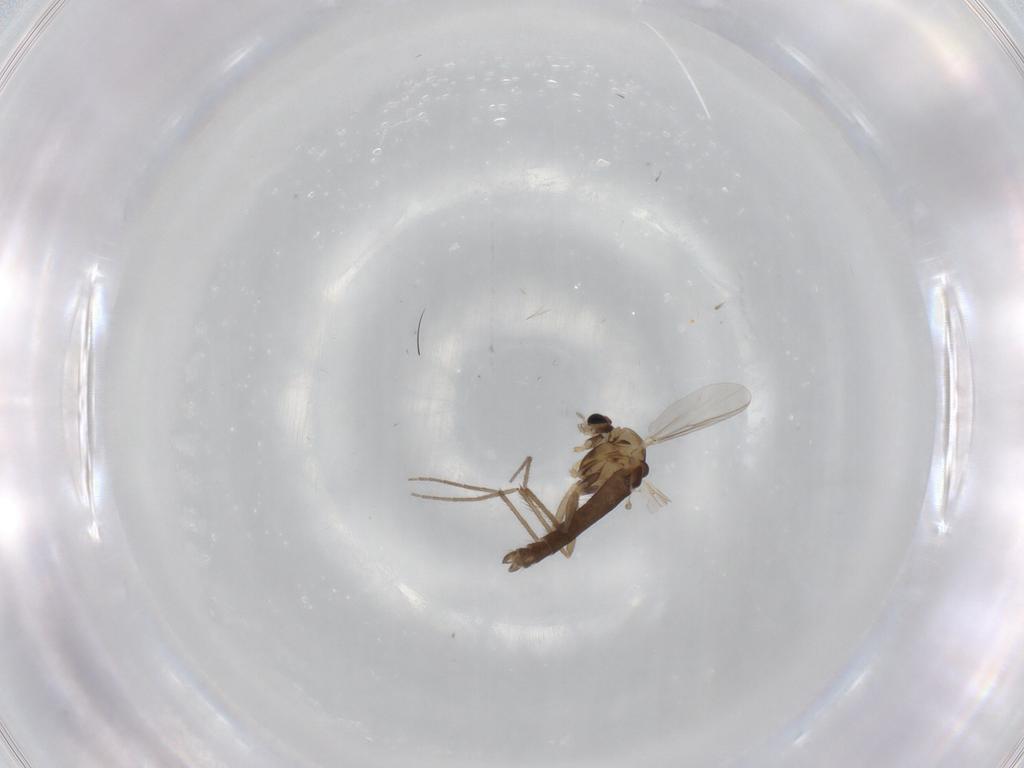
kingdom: Animalia
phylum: Arthropoda
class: Insecta
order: Diptera
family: Chironomidae
